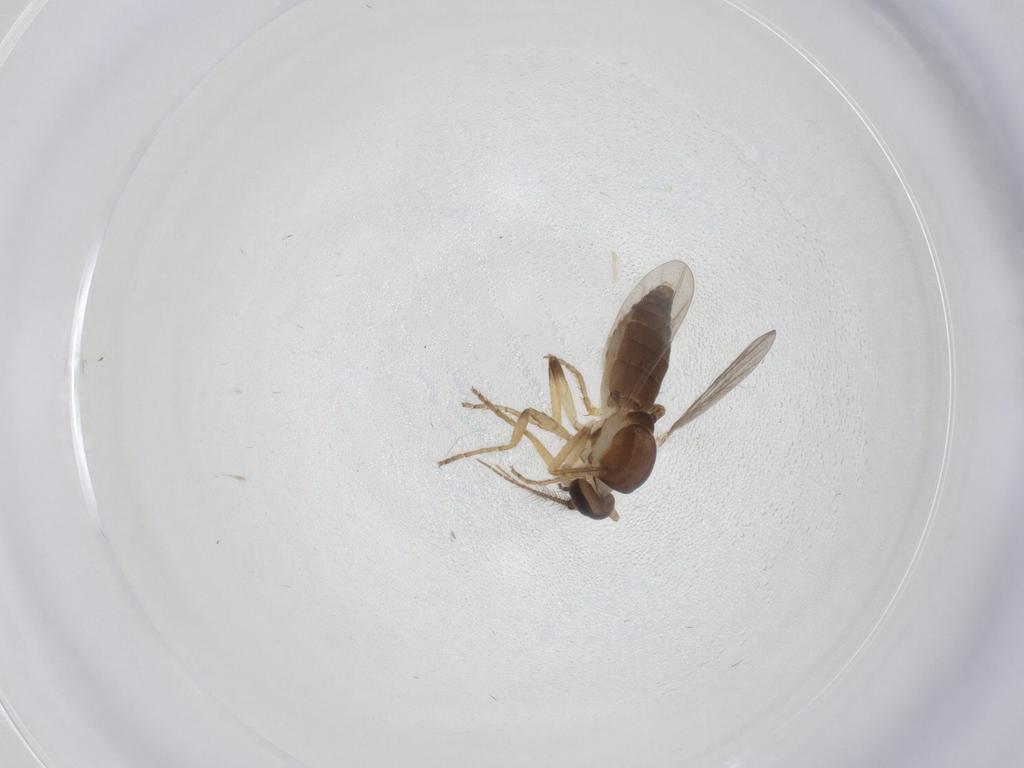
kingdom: Animalia
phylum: Arthropoda
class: Insecta
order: Diptera
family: Ceratopogonidae
